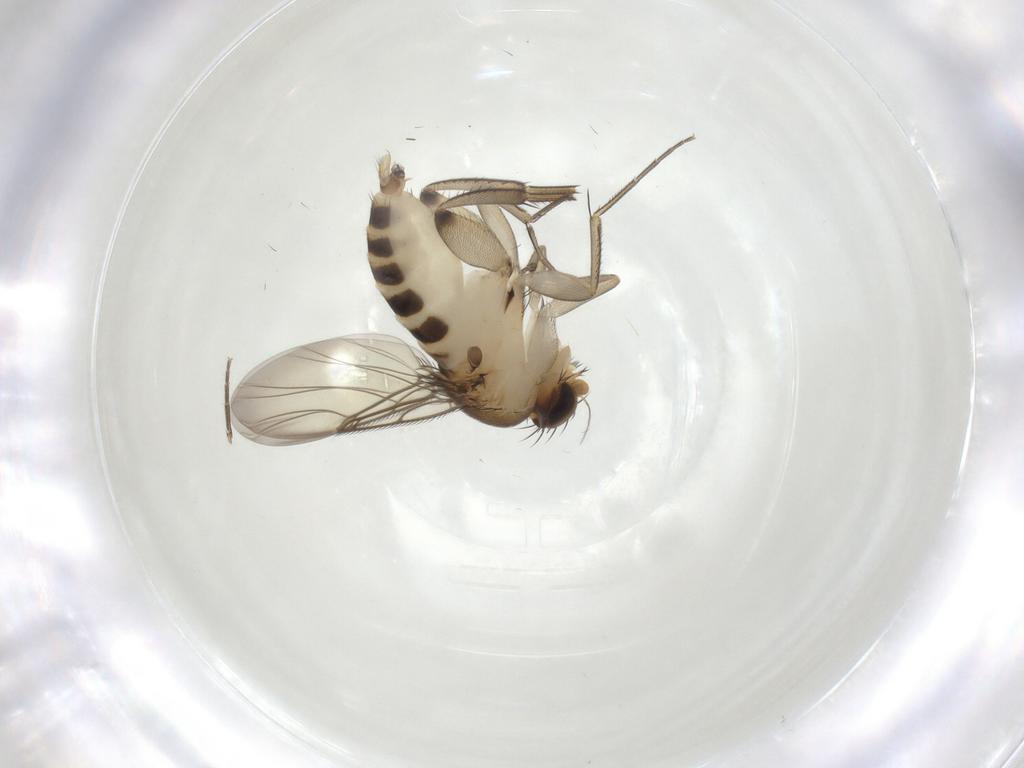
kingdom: Animalia
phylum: Arthropoda
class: Insecta
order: Diptera
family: Phoridae
